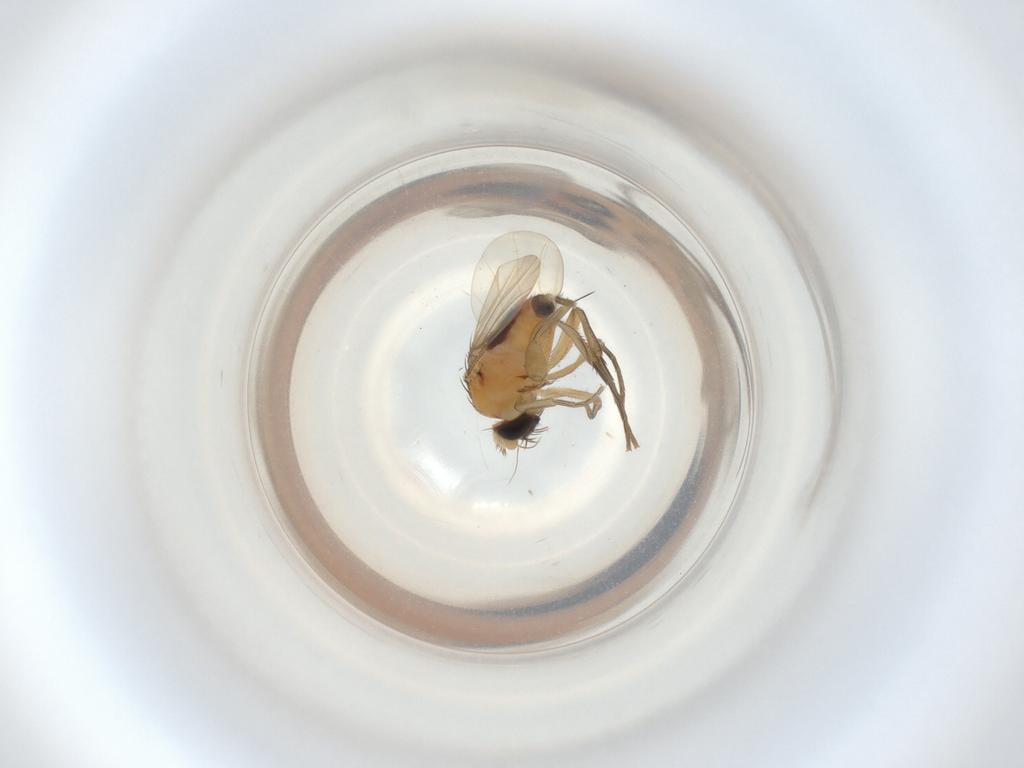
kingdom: Animalia
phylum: Arthropoda
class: Insecta
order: Diptera
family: Phoridae
